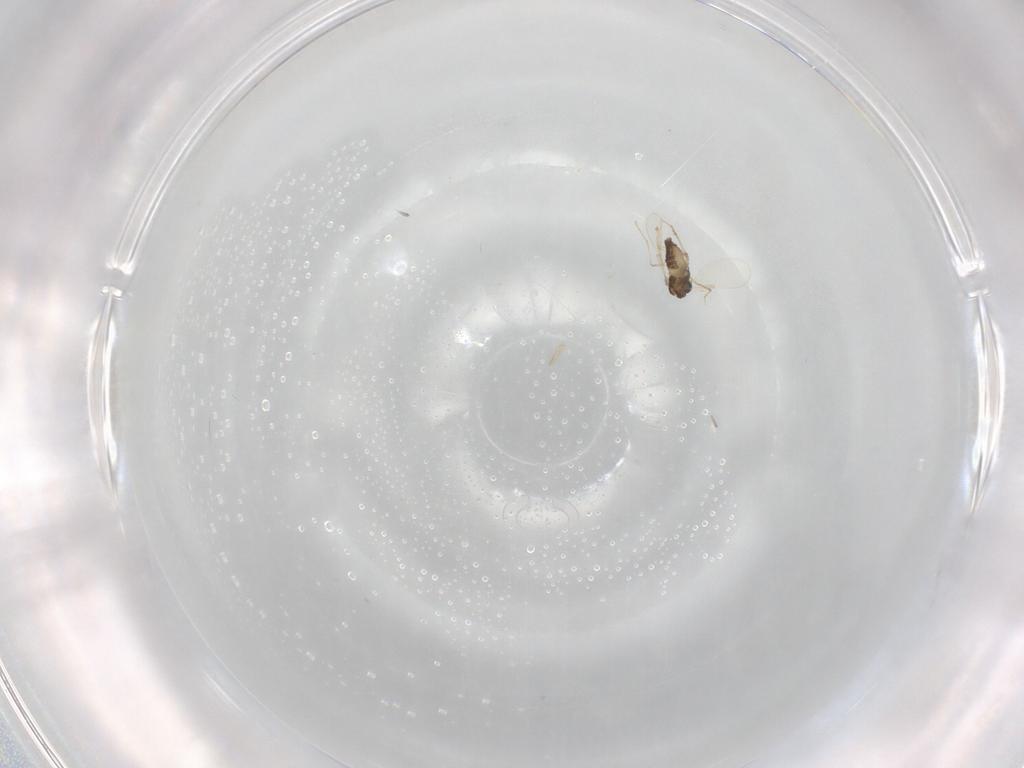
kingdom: Animalia
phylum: Arthropoda
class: Insecta
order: Diptera
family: Chironomidae
